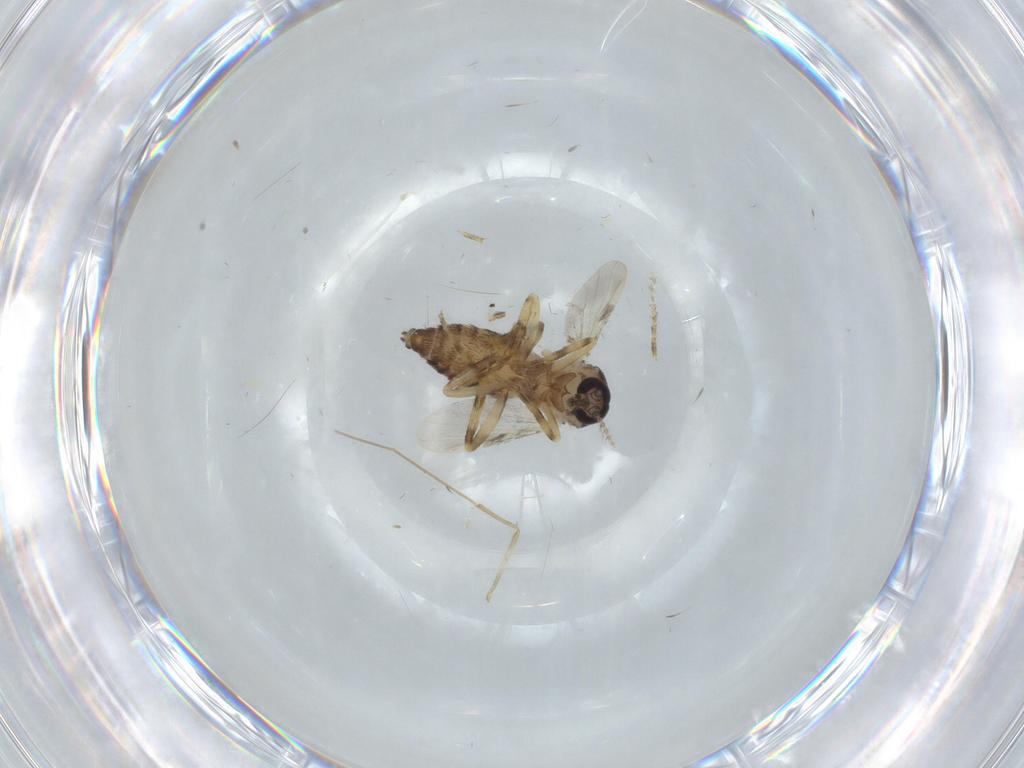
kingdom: Animalia
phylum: Arthropoda
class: Insecta
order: Diptera
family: Ceratopogonidae
